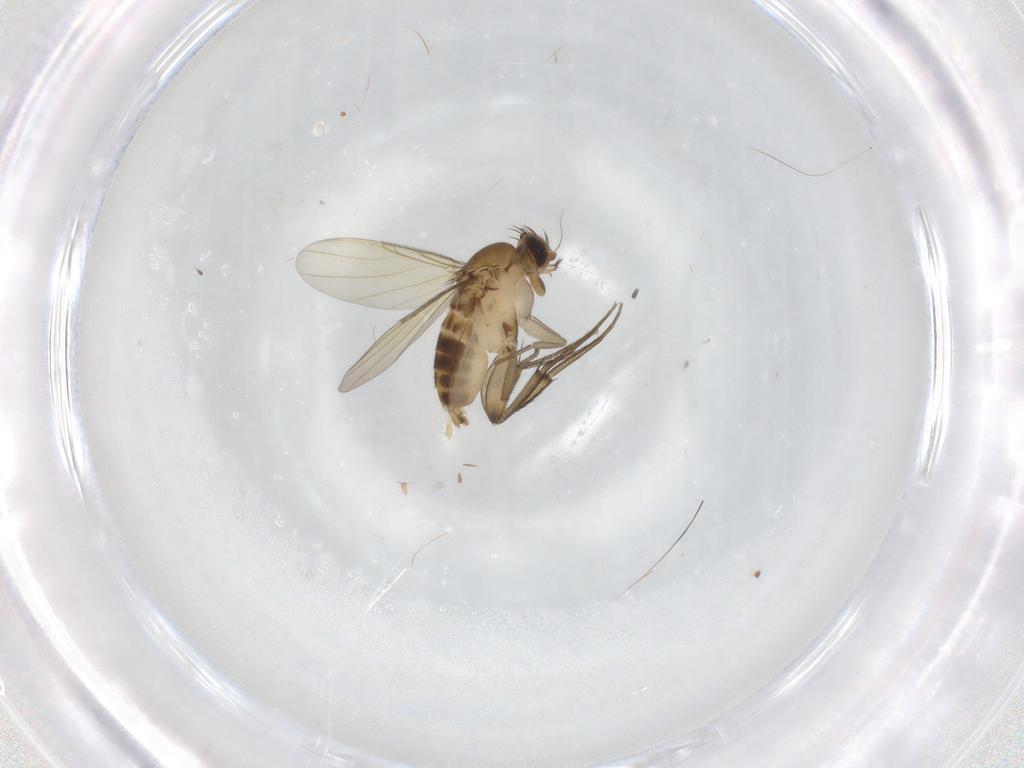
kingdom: Animalia
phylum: Arthropoda
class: Insecta
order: Diptera
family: Phoridae
